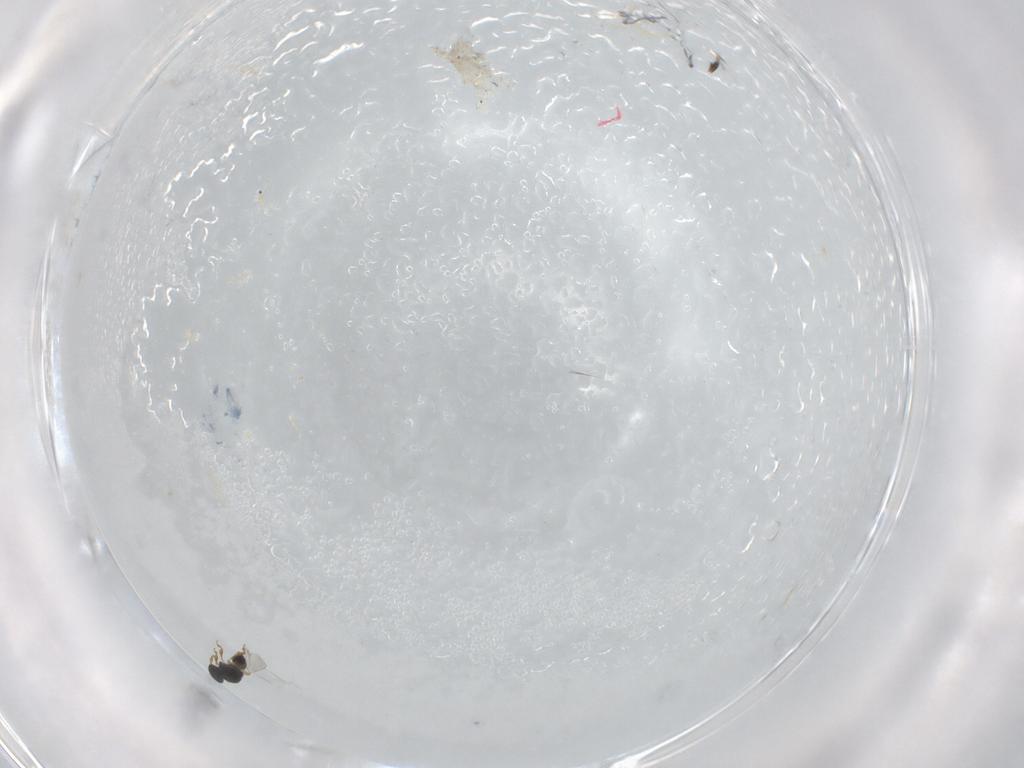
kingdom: Animalia
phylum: Arthropoda
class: Insecta
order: Hymenoptera
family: Platygastridae
